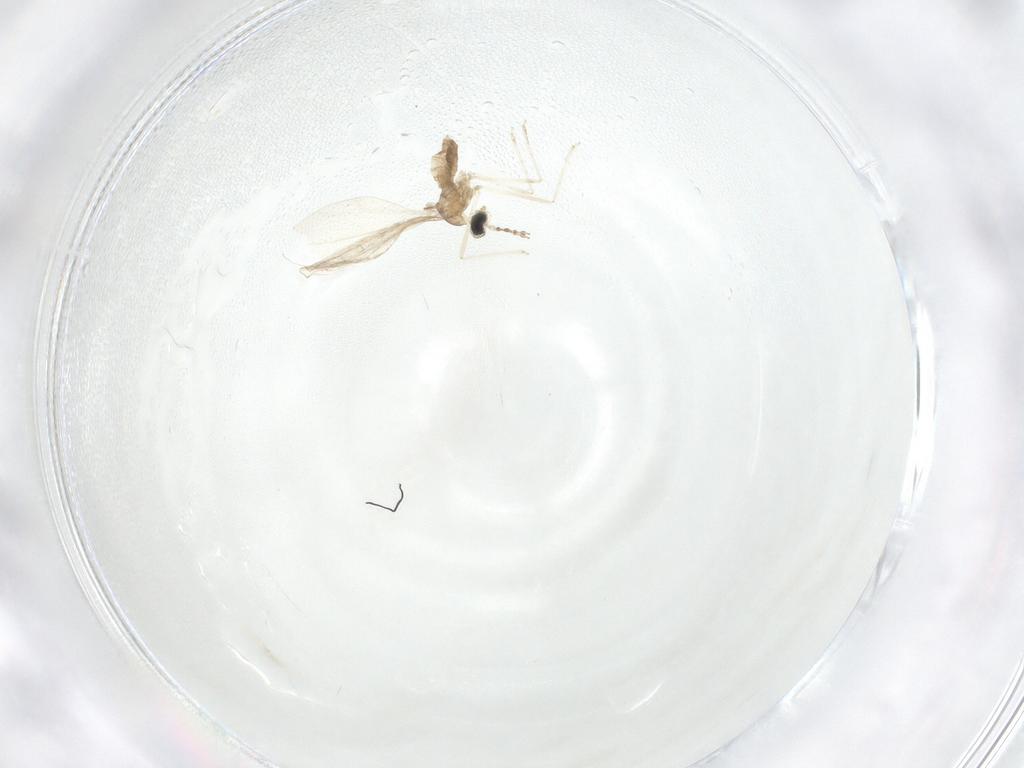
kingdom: Animalia
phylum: Arthropoda
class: Insecta
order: Diptera
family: Cecidomyiidae
